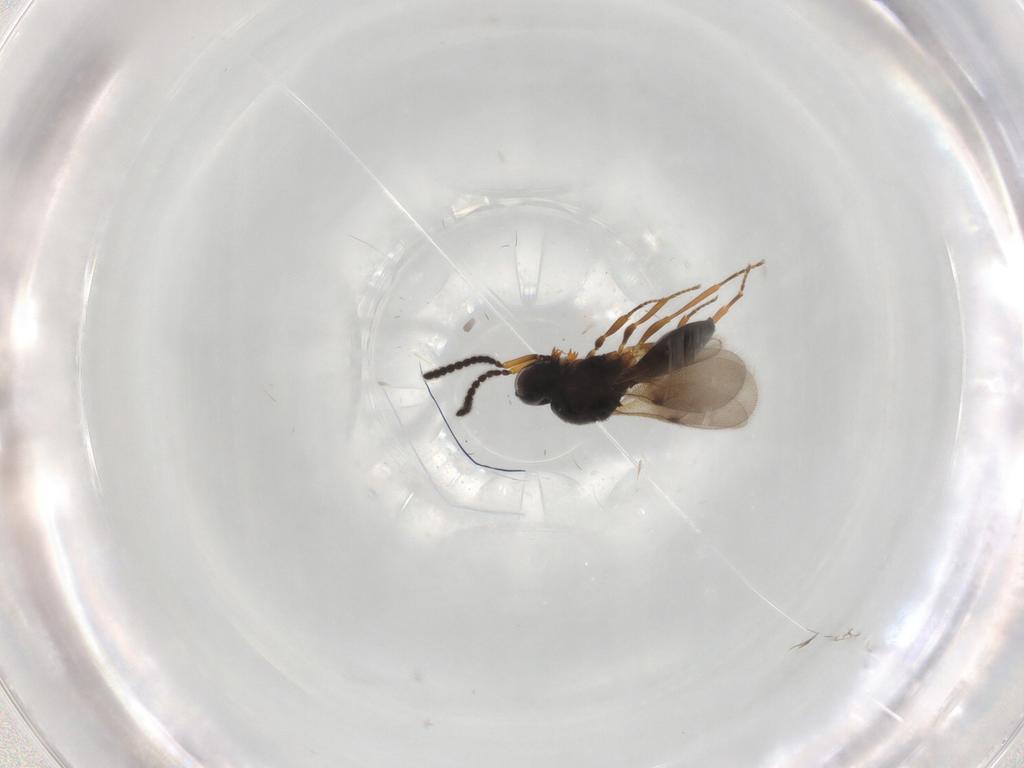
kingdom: Animalia
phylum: Arthropoda
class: Insecta
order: Hymenoptera
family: Scelionidae
